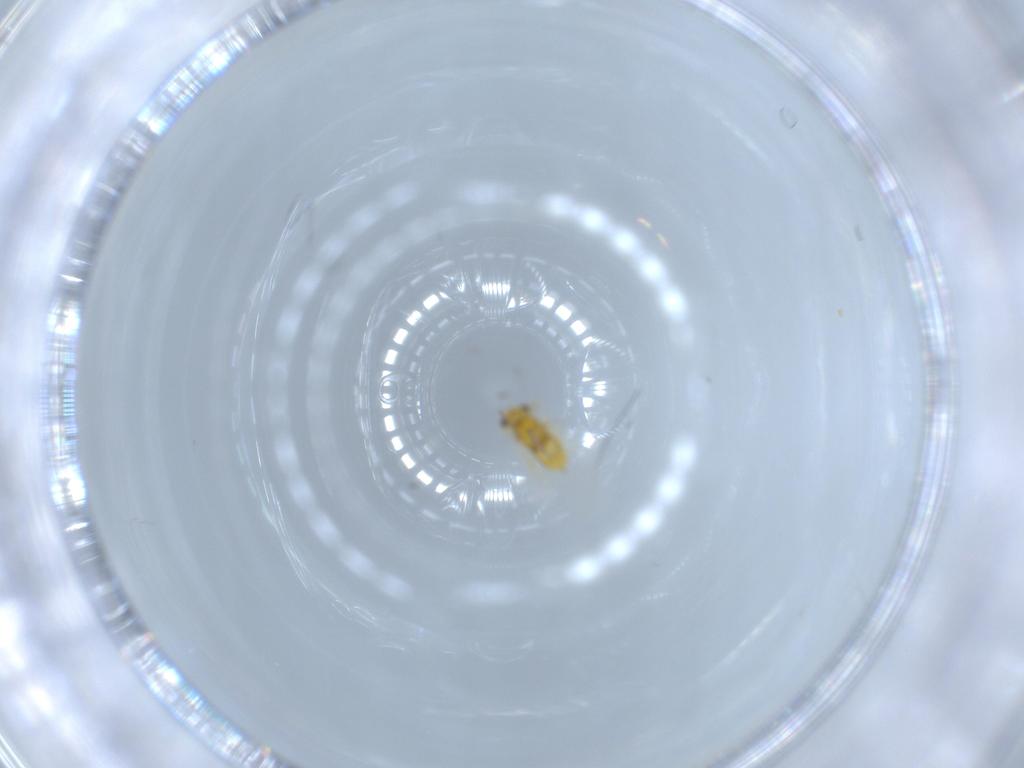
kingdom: Animalia
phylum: Arthropoda
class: Insecta
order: Hymenoptera
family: Aphelinidae
